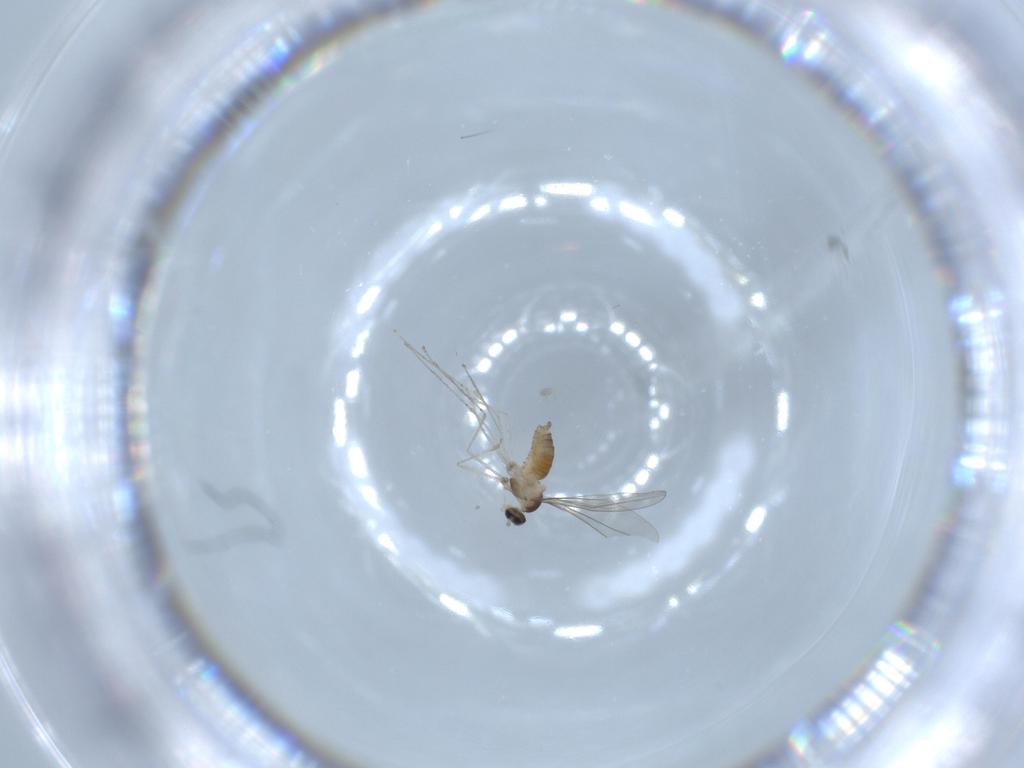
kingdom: Animalia
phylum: Arthropoda
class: Insecta
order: Diptera
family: Cecidomyiidae
